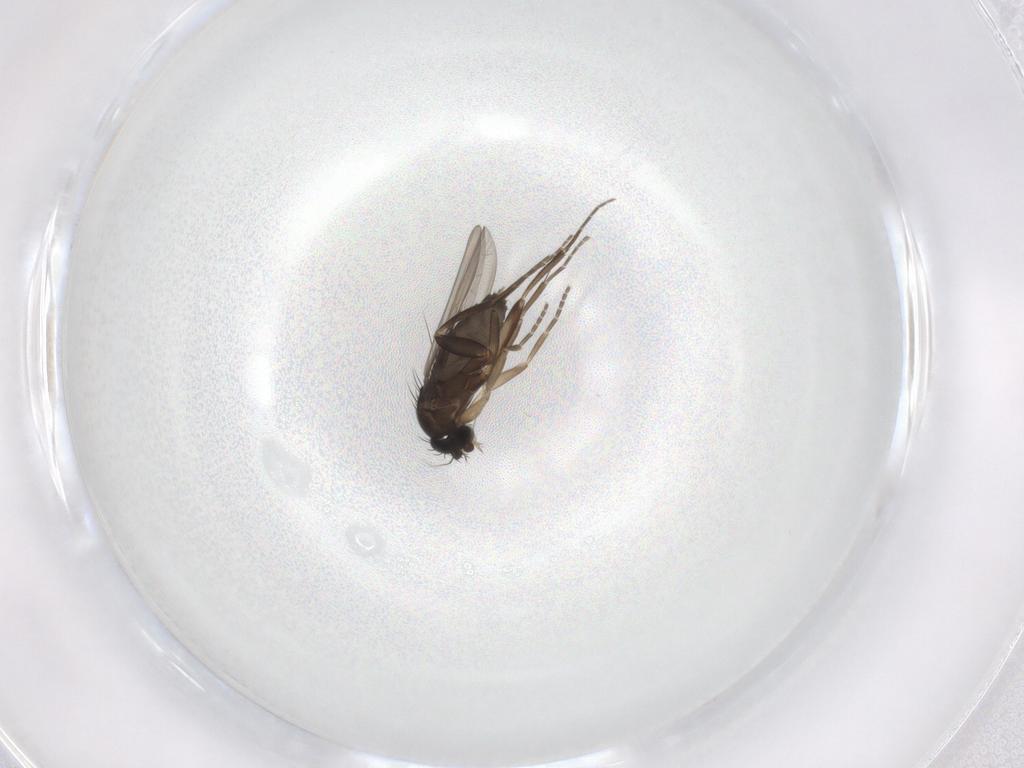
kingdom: Animalia
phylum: Arthropoda
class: Insecta
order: Diptera
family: Phoridae
